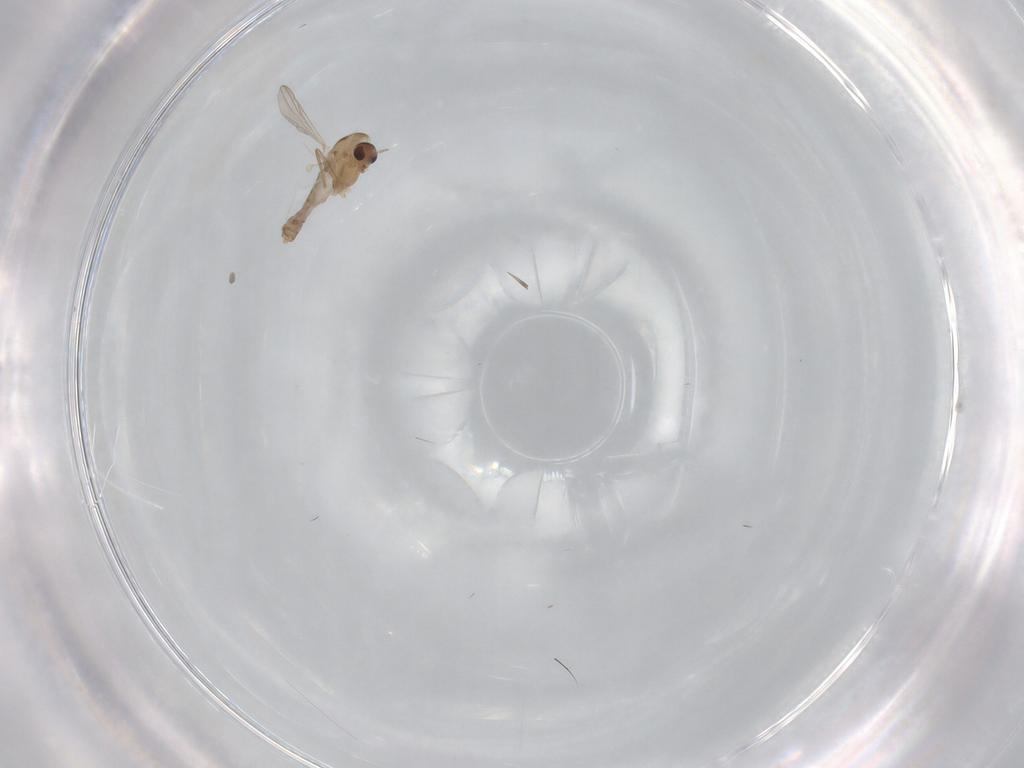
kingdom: Animalia
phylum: Arthropoda
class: Insecta
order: Diptera
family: Chironomidae
